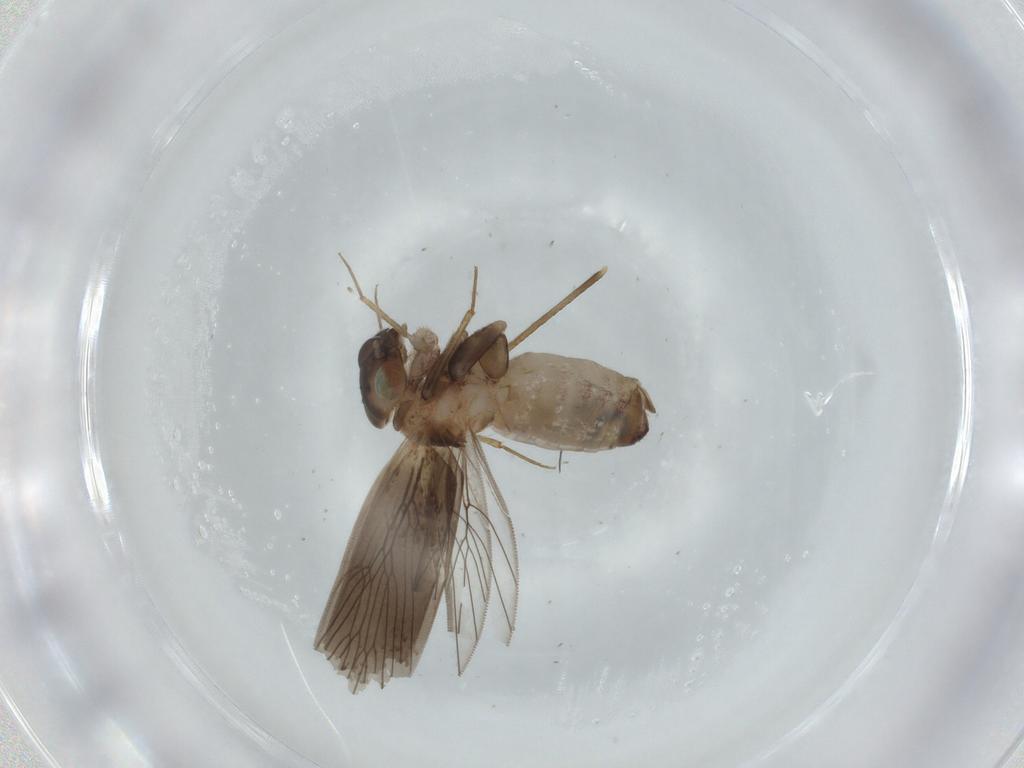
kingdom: Animalia
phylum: Arthropoda
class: Insecta
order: Psocodea
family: Lepidopsocidae
